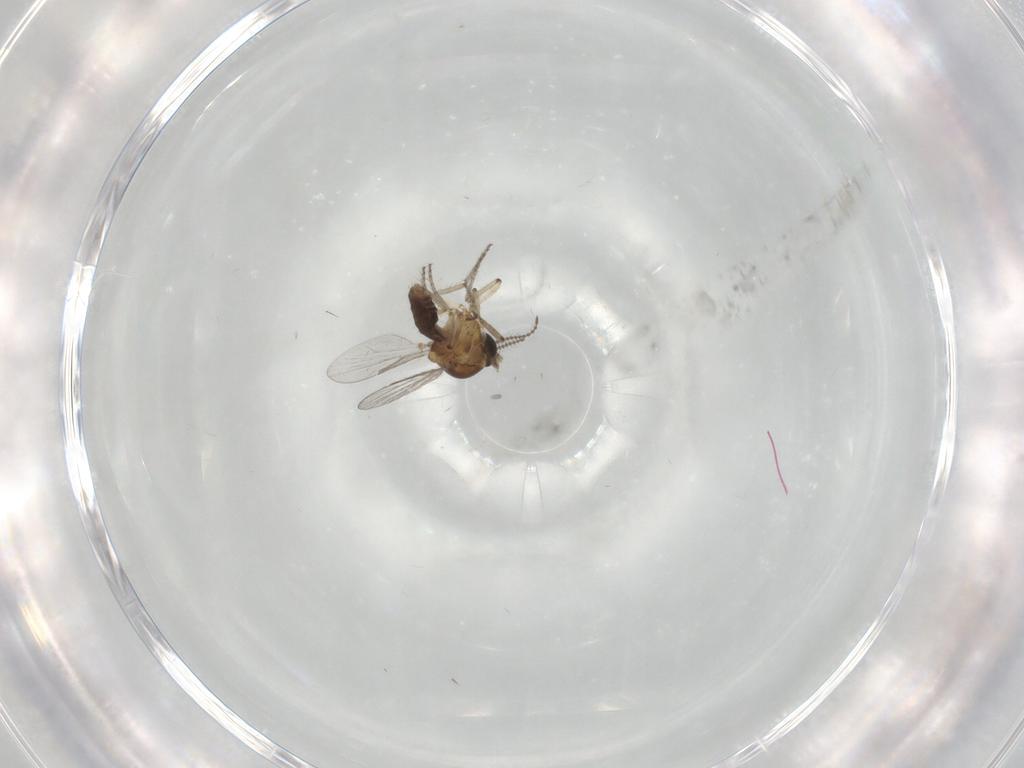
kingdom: Animalia
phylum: Arthropoda
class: Insecta
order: Diptera
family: Ceratopogonidae
